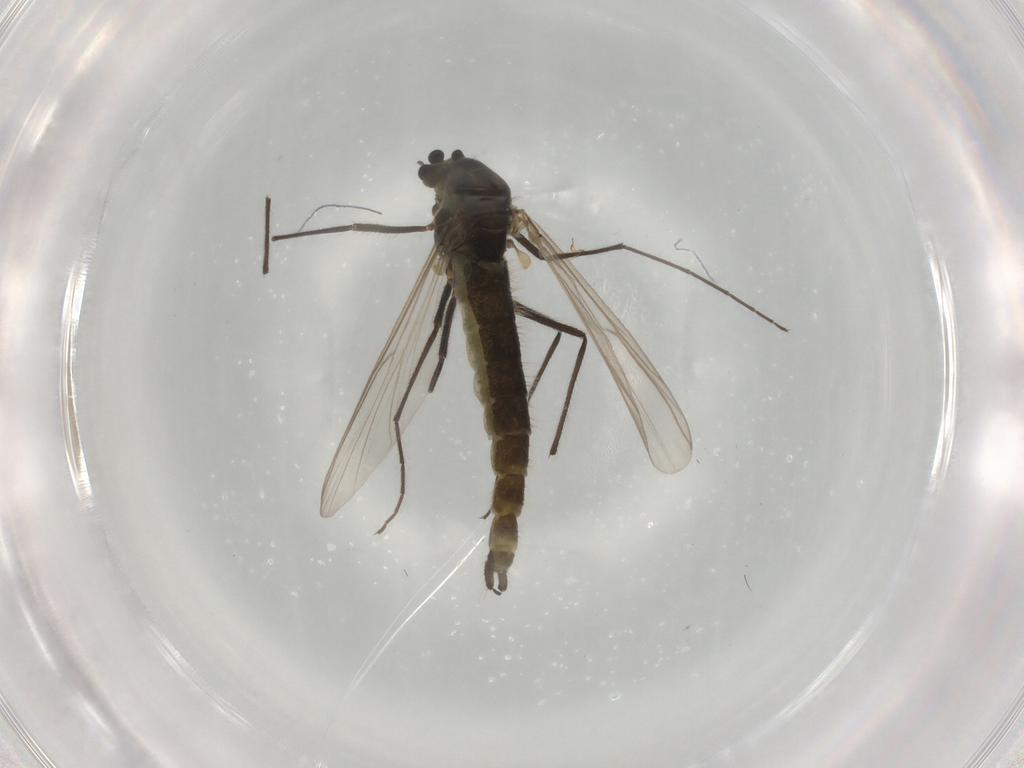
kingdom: Animalia
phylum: Arthropoda
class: Insecta
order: Diptera
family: Chironomidae
